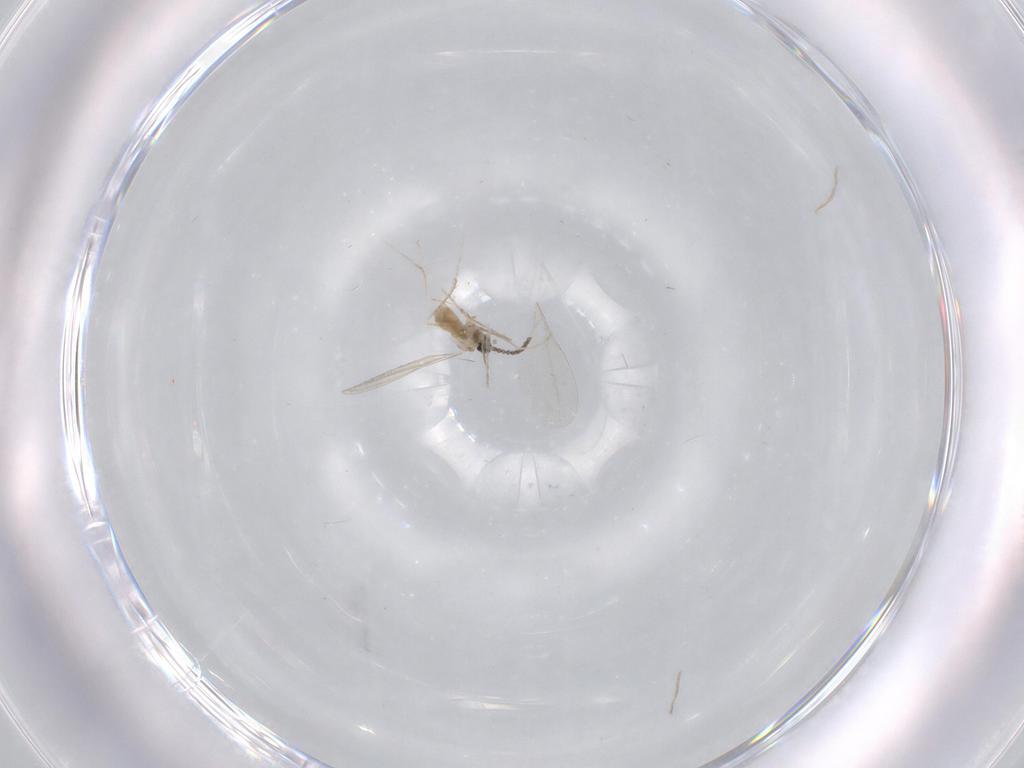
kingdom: Animalia
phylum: Arthropoda
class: Insecta
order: Diptera
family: Cecidomyiidae
